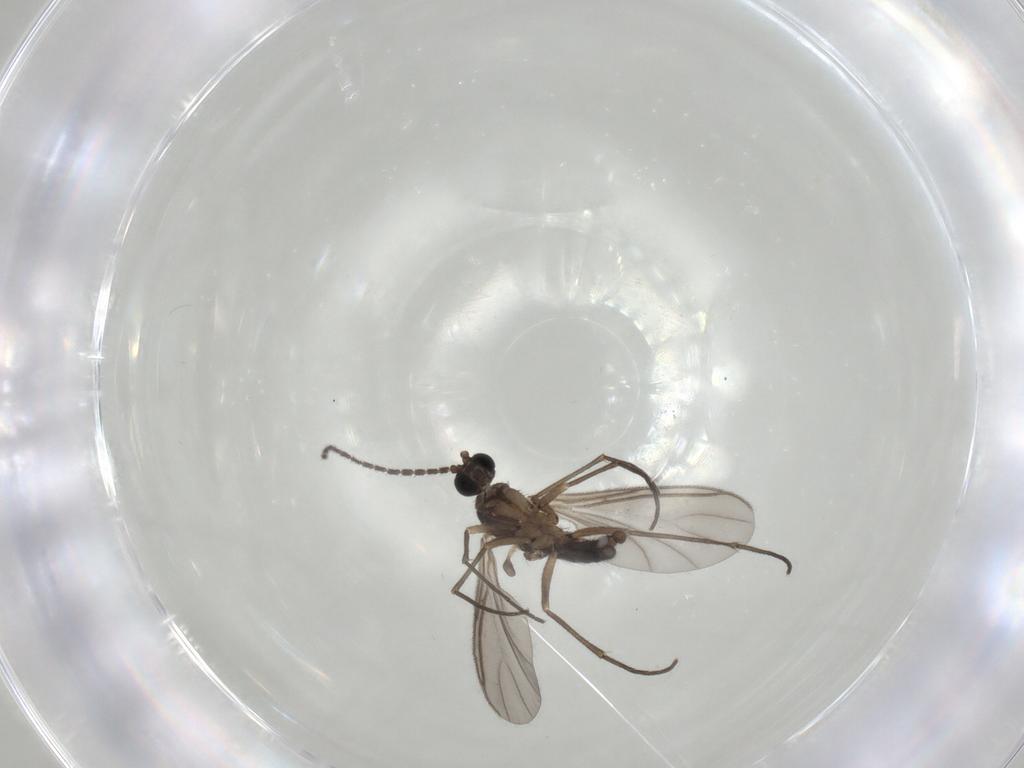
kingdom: Animalia
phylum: Arthropoda
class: Insecta
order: Diptera
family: Sciaridae
